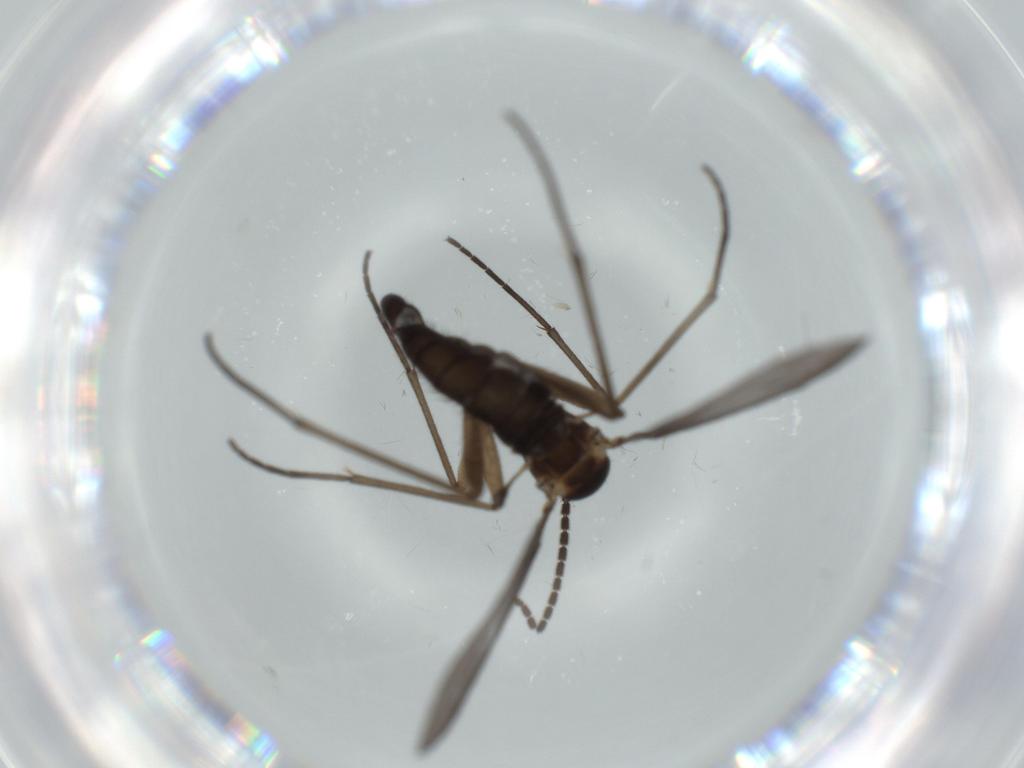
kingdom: Animalia
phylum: Arthropoda
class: Insecta
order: Diptera
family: Sciaridae
